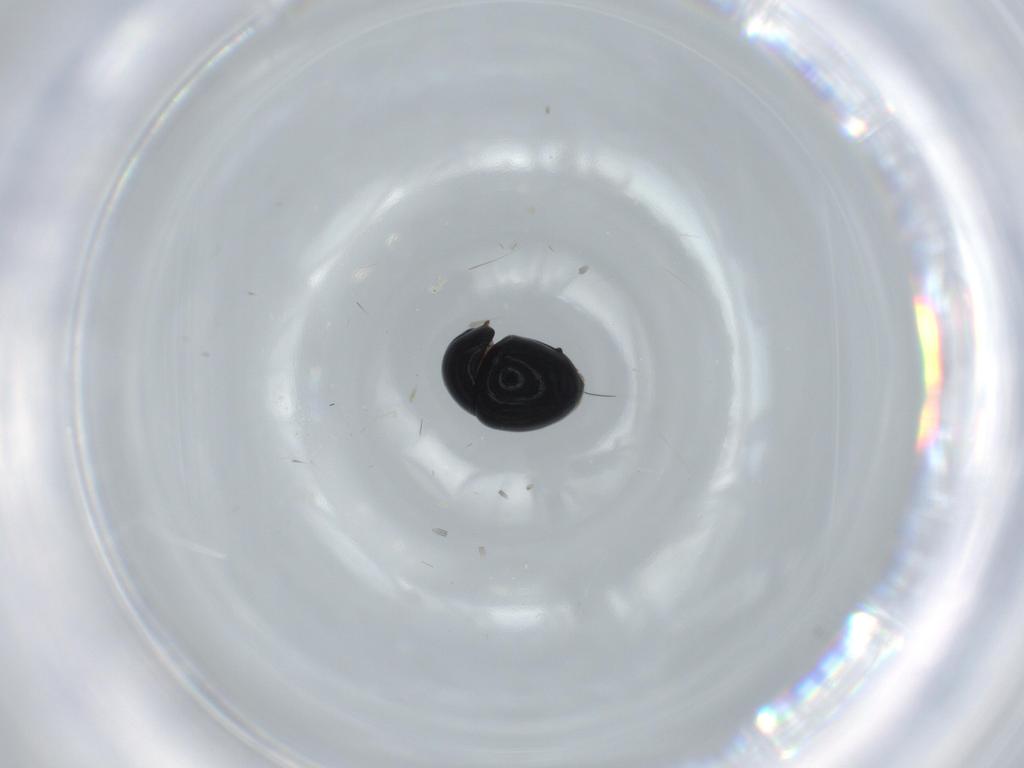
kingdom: Animalia
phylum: Arthropoda
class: Insecta
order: Coleoptera
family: Cybocephalidae
